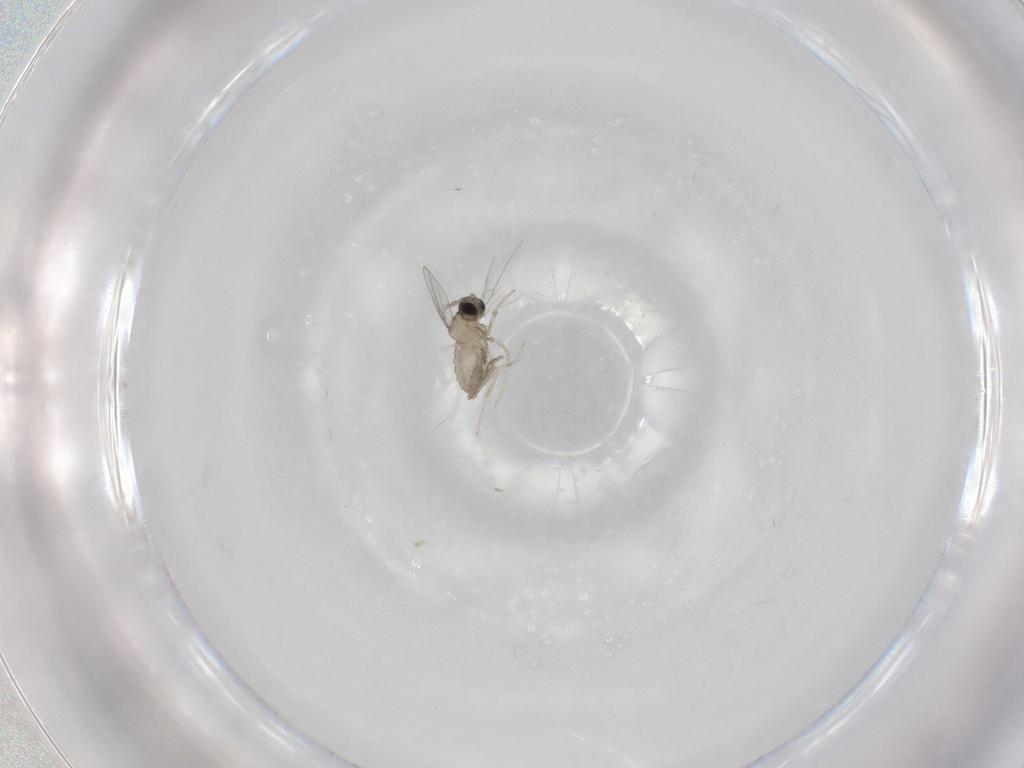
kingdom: Animalia
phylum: Arthropoda
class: Insecta
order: Diptera
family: Cecidomyiidae
